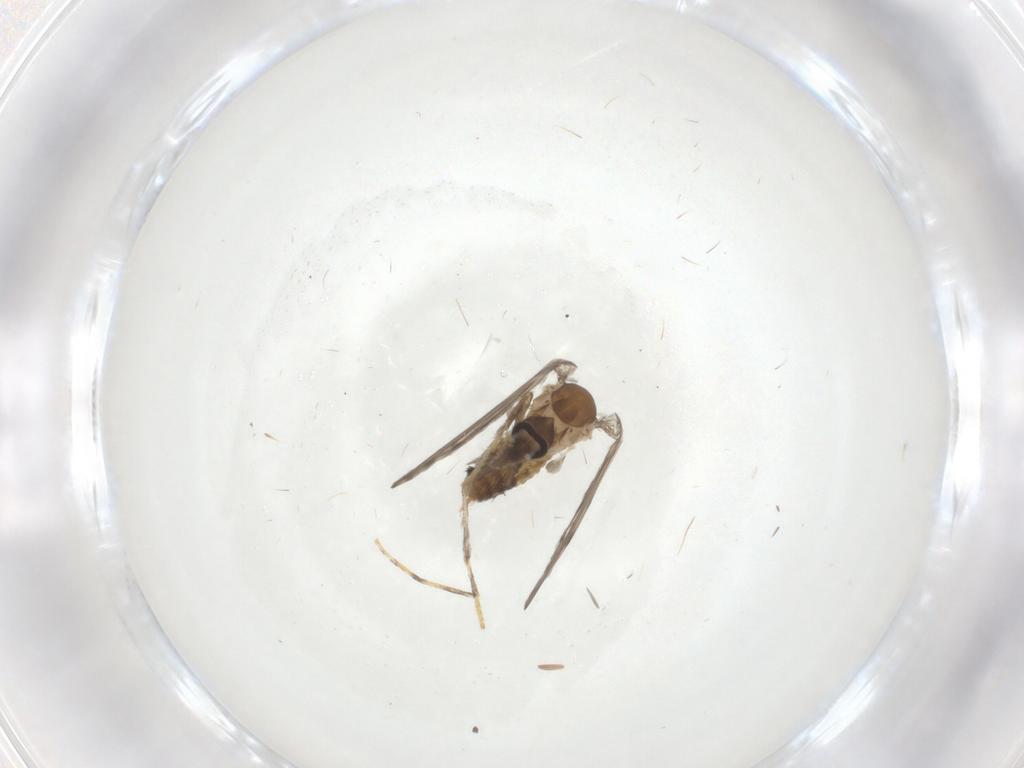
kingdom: Animalia
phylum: Arthropoda
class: Insecta
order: Diptera
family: Psychodidae
